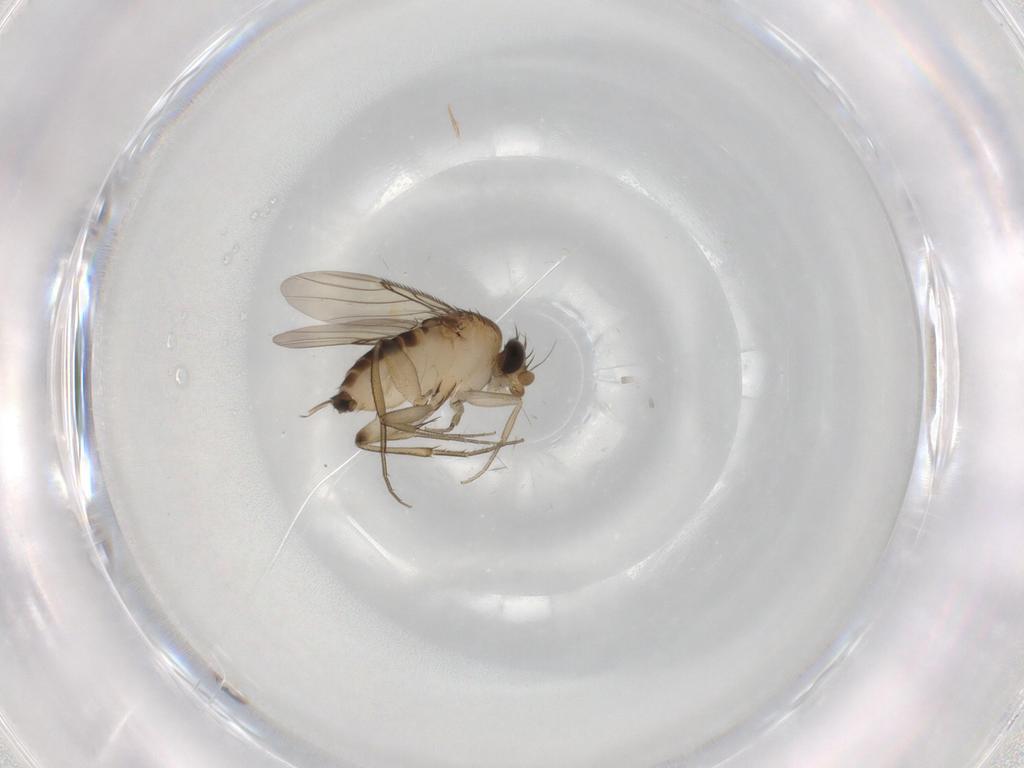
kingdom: Animalia
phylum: Arthropoda
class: Insecta
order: Diptera
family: Phoridae
